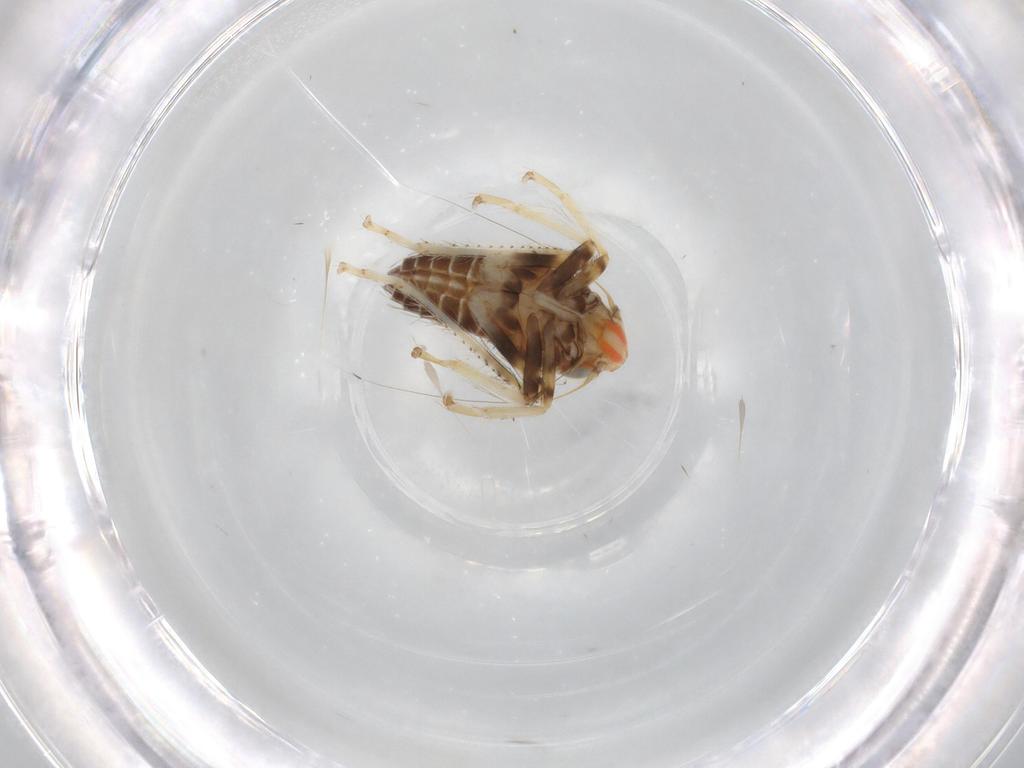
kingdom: Animalia
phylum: Arthropoda
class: Insecta
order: Hemiptera
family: Cicadellidae
